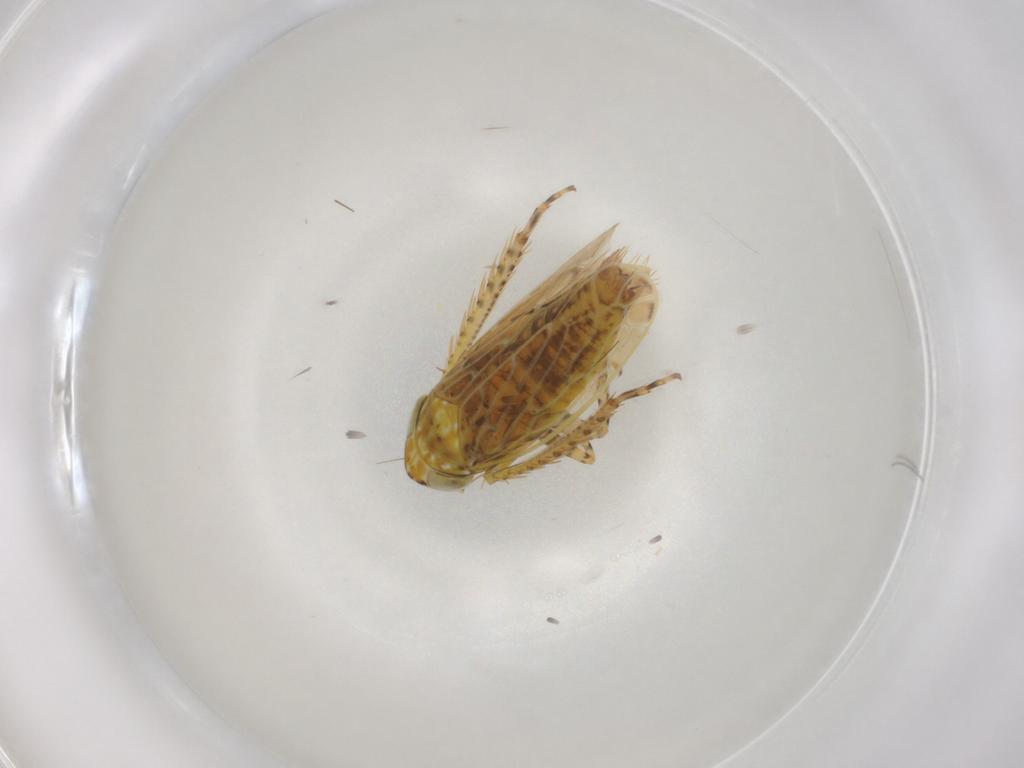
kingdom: Animalia
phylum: Arthropoda
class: Insecta
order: Hemiptera
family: Cicadellidae
